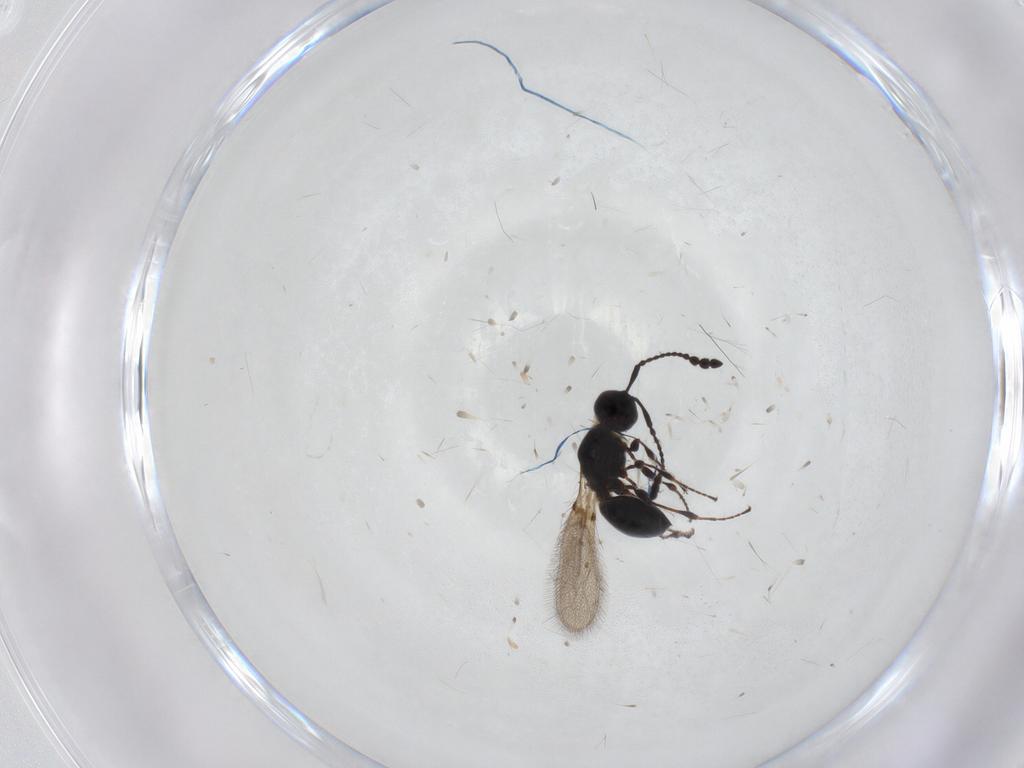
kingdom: Animalia
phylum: Arthropoda
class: Insecta
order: Hymenoptera
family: Diapriidae
